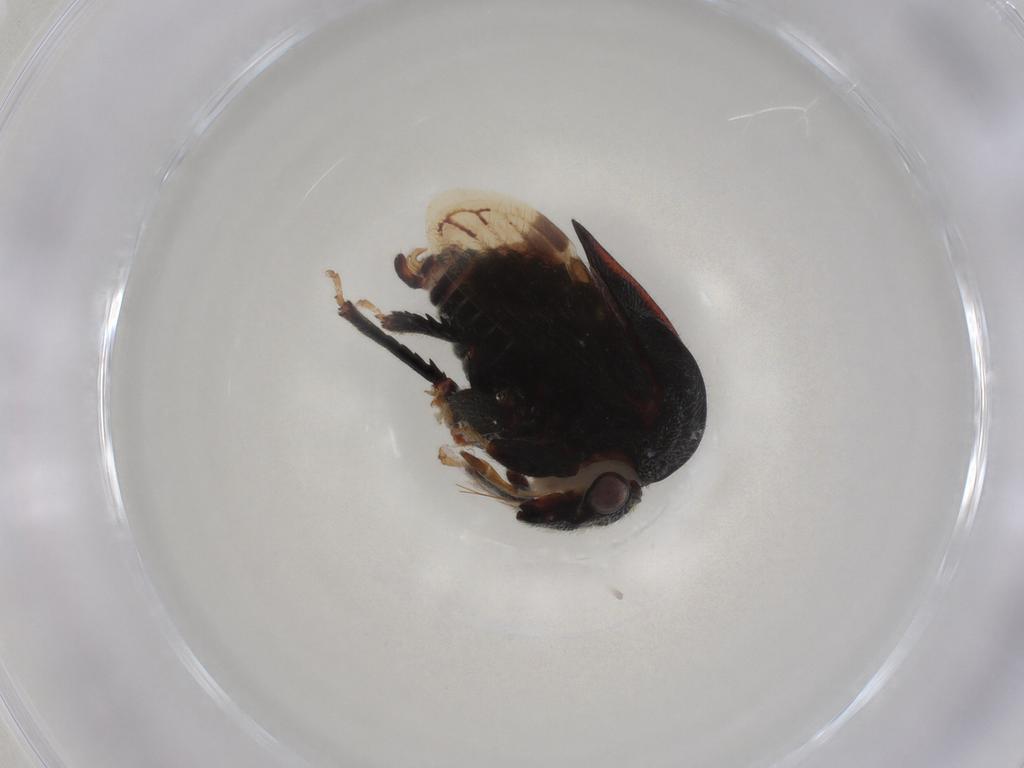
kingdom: Animalia
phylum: Arthropoda
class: Insecta
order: Hemiptera
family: Membracidae
